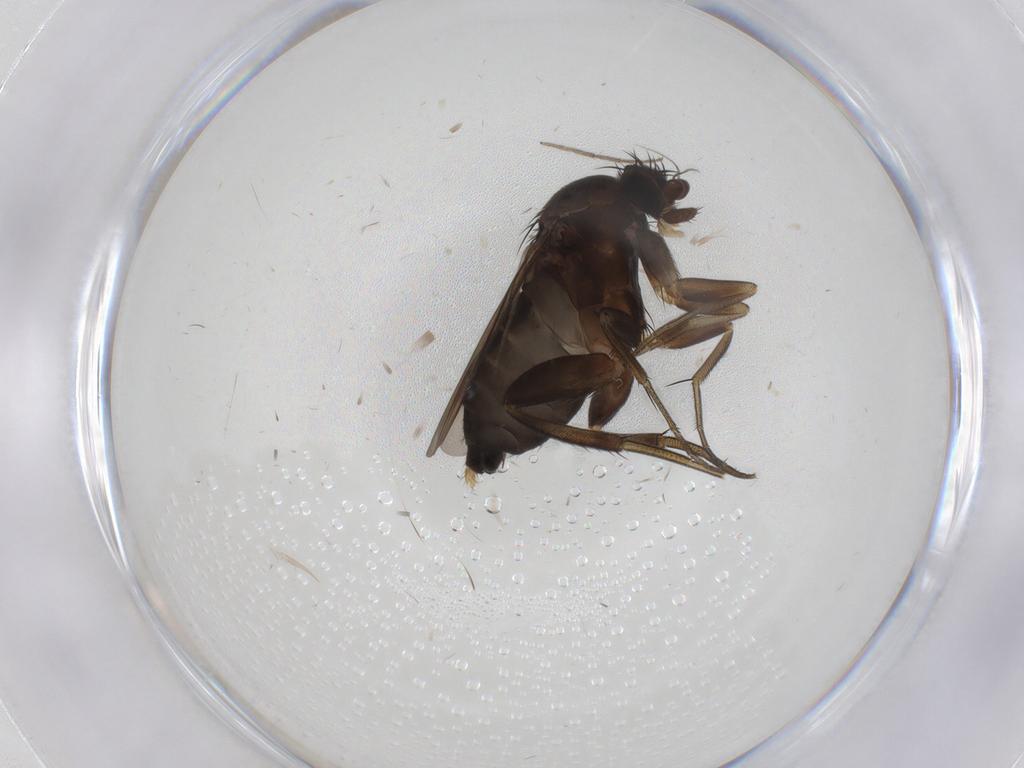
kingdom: Animalia
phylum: Arthropoda
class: Insecta
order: Diptera
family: Phoridae
